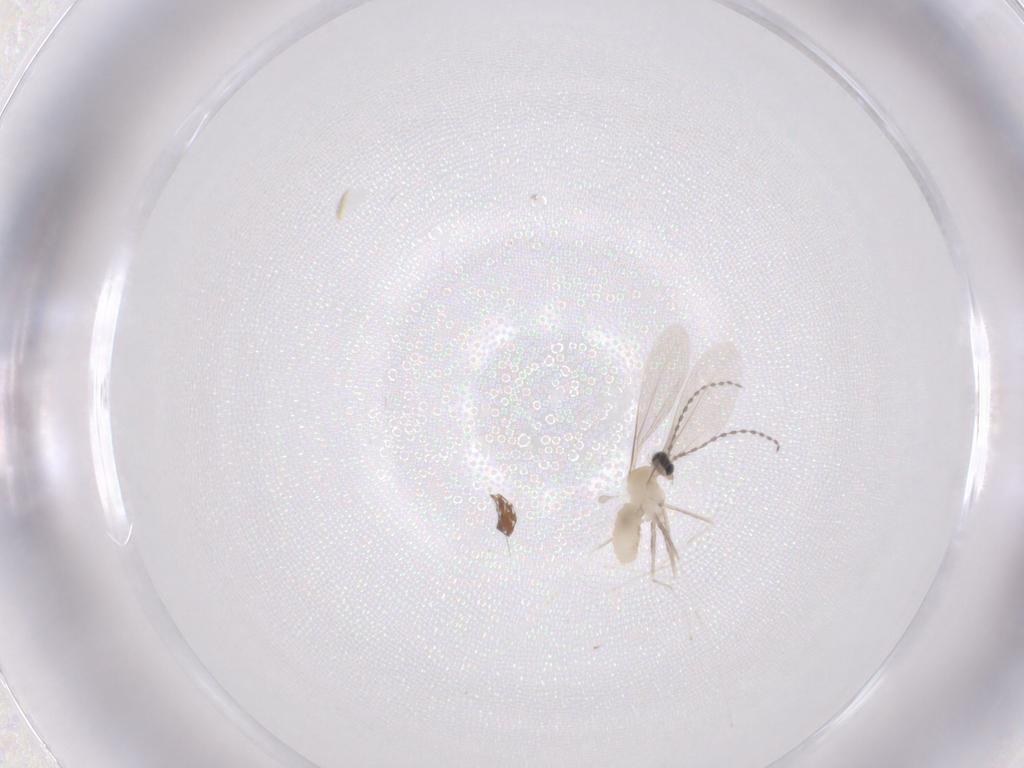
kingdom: Animalia
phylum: Arthropoda
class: Insecta
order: Diptera
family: Cecidomyiidae
